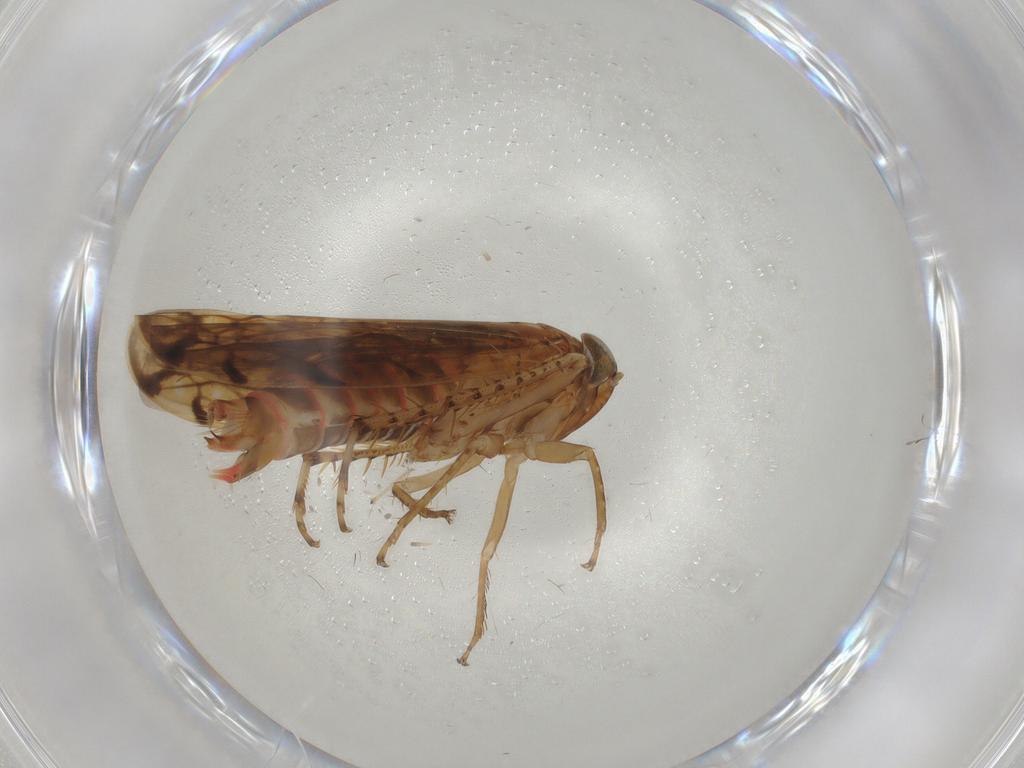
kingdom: Animalia
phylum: Arthropoda
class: Insecta
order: Hemiptera
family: Cicadellidae
